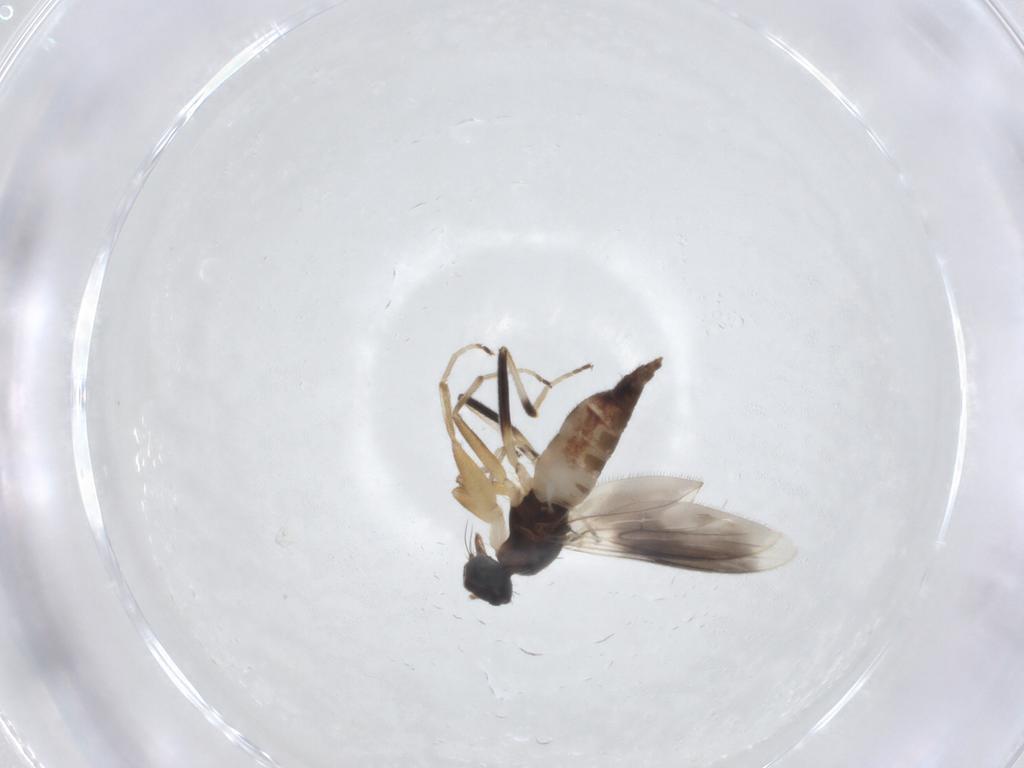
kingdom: Animalia
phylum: Arthropoda
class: Insecta
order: Diptera
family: Hybotidae
